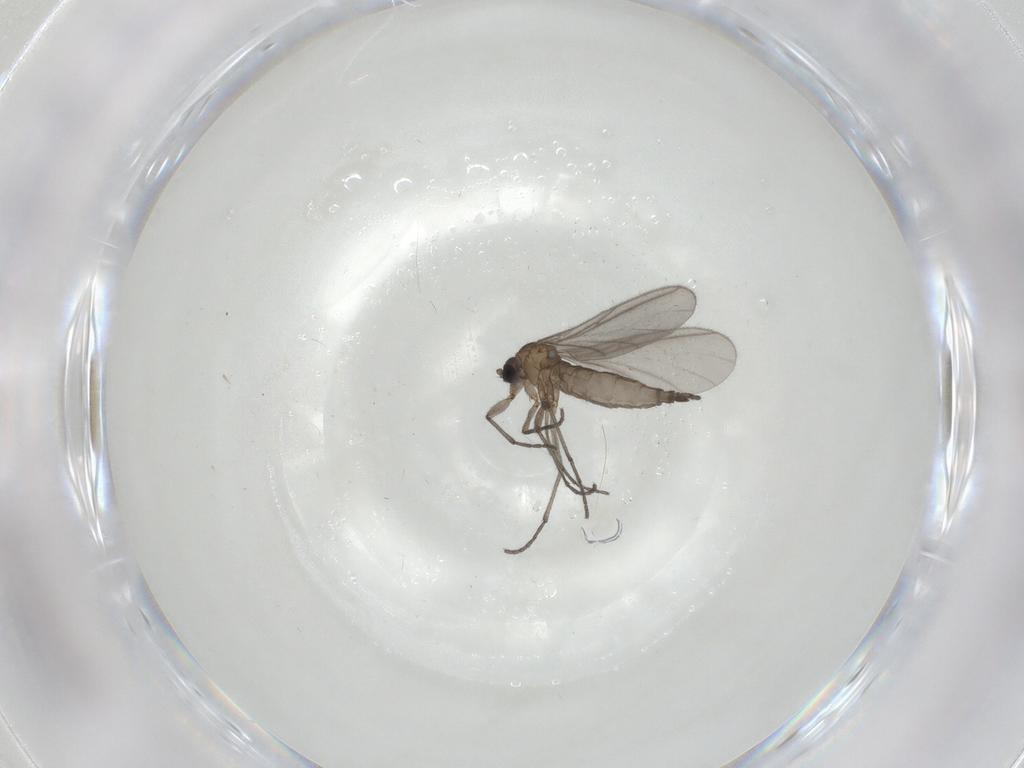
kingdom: Animalia
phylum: Arthropoda
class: Insecta
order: Diptera
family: Sciaridae
